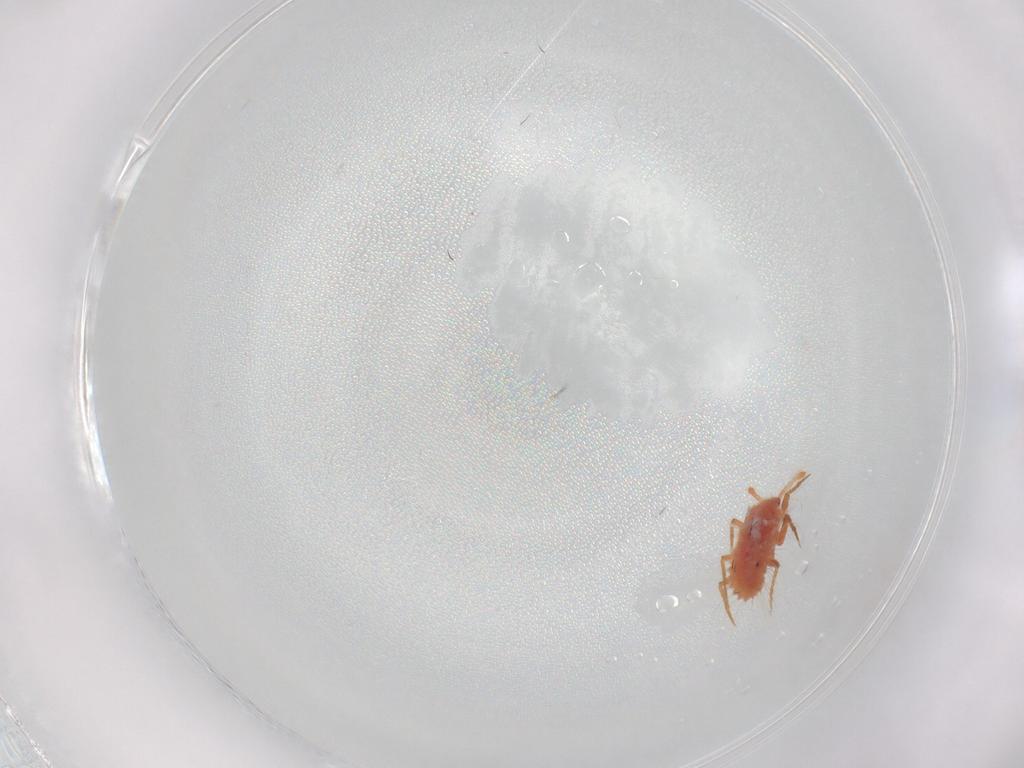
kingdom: Animalia
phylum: Arthropoda
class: Insecta
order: Hemiptera
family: Coccoidea_incertae_sedis
